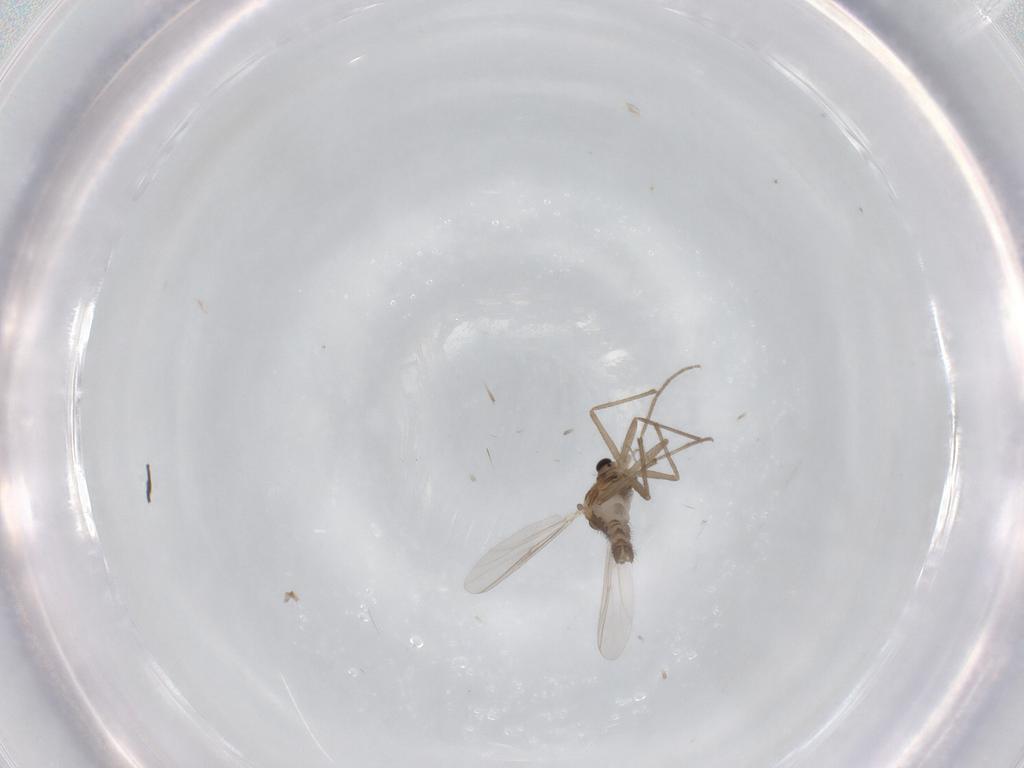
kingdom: Animalia
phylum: Arthropoda
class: Insecta
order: Diptera
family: Chironomidae
